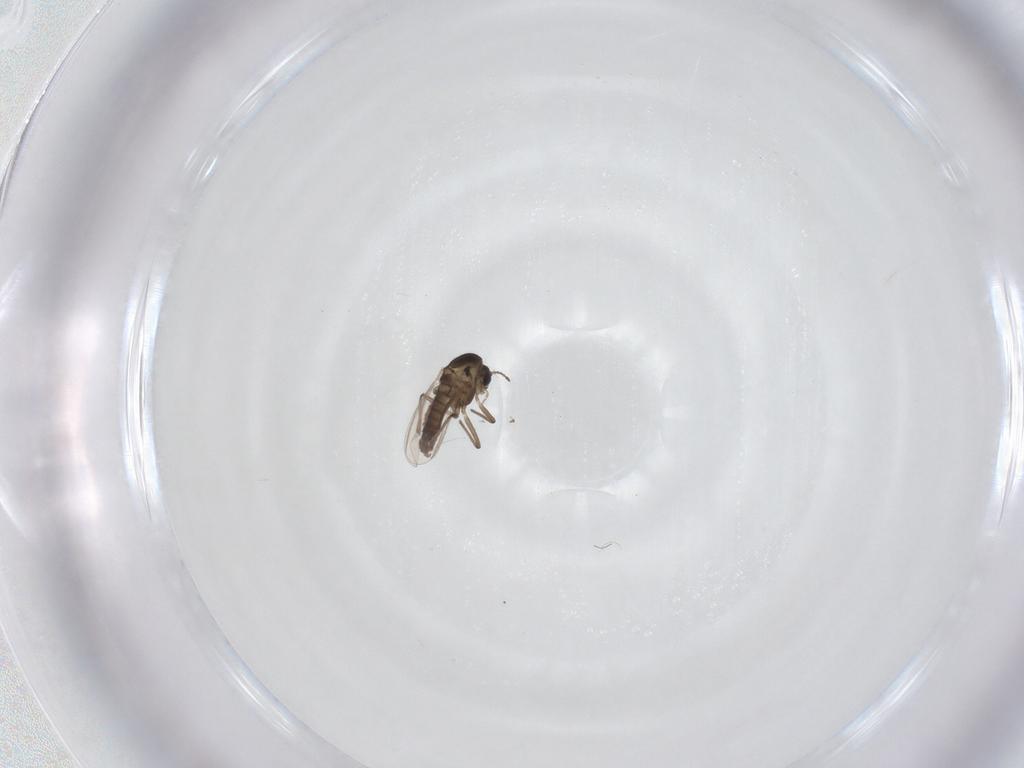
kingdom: Animalia
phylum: Arthropoda
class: Insecta
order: Diptera
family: Chironomidae
